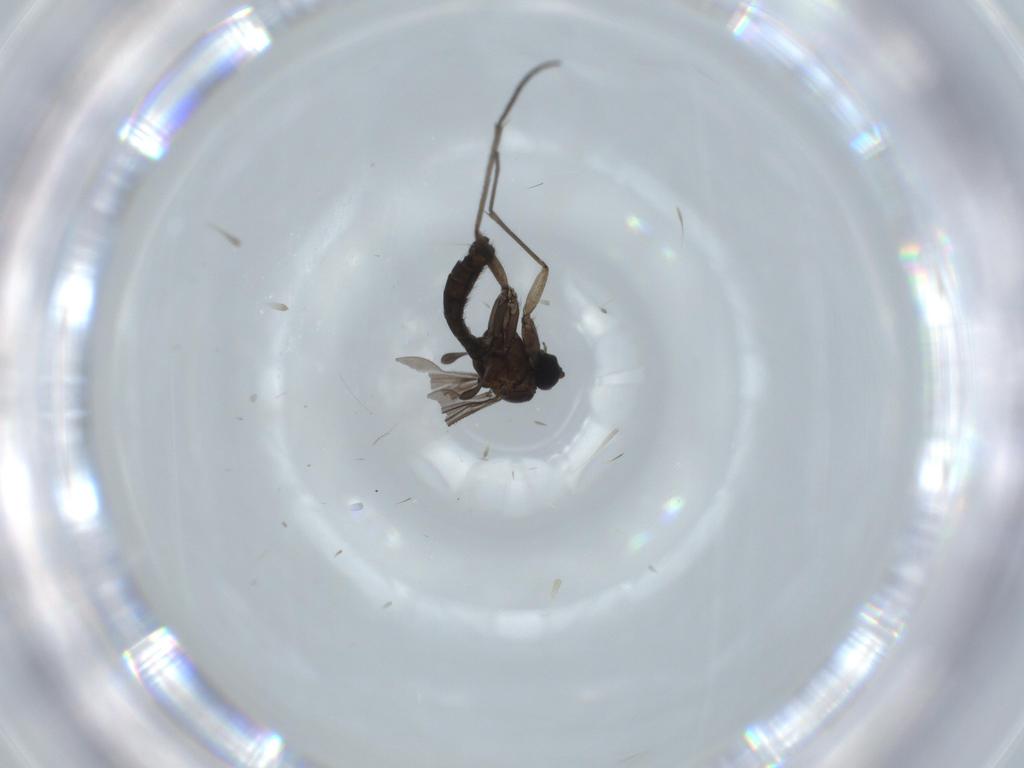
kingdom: Animalia
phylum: Arthropoda
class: Insecta
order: Diptera
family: Sciaridae
